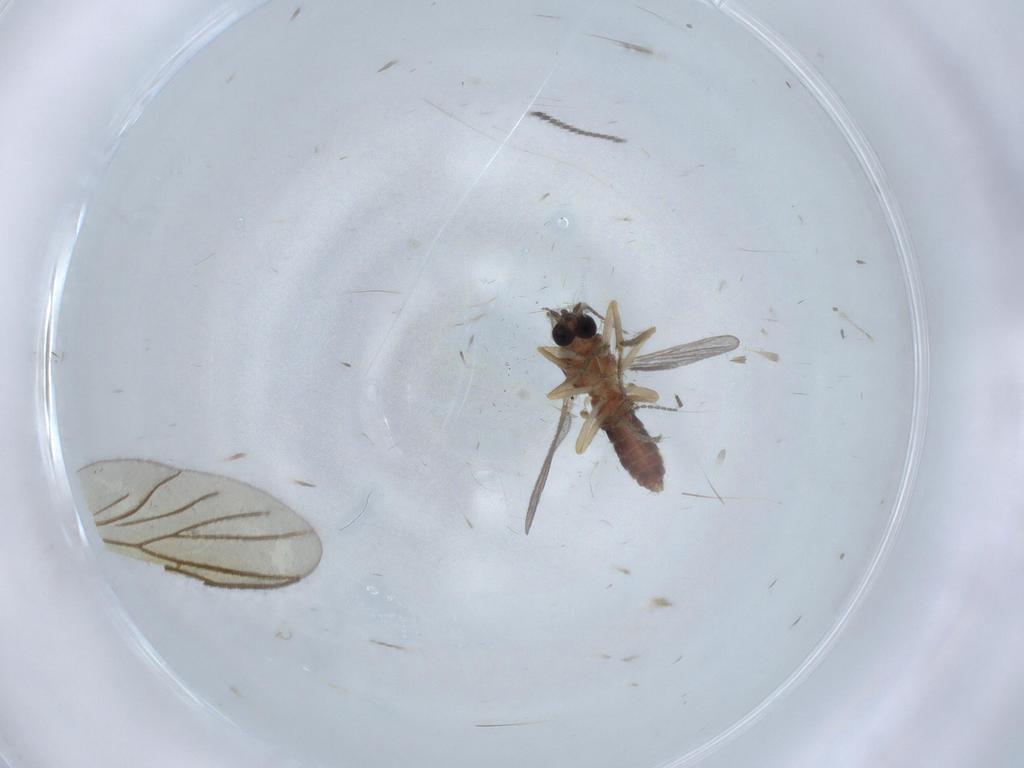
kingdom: Animalia
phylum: Arthropoda
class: Insecta
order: Diptera
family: Ceratopogonidae
